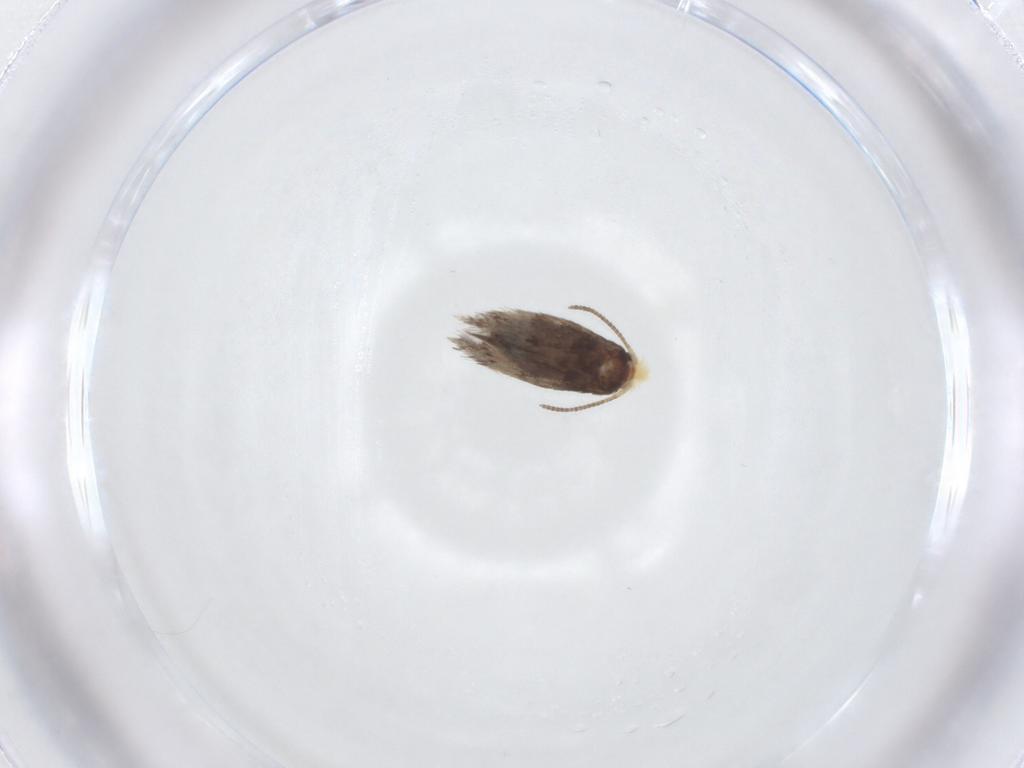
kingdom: Animalia
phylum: Arthropoda
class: Insecta
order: Lepidoptera
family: Nepticulidae
